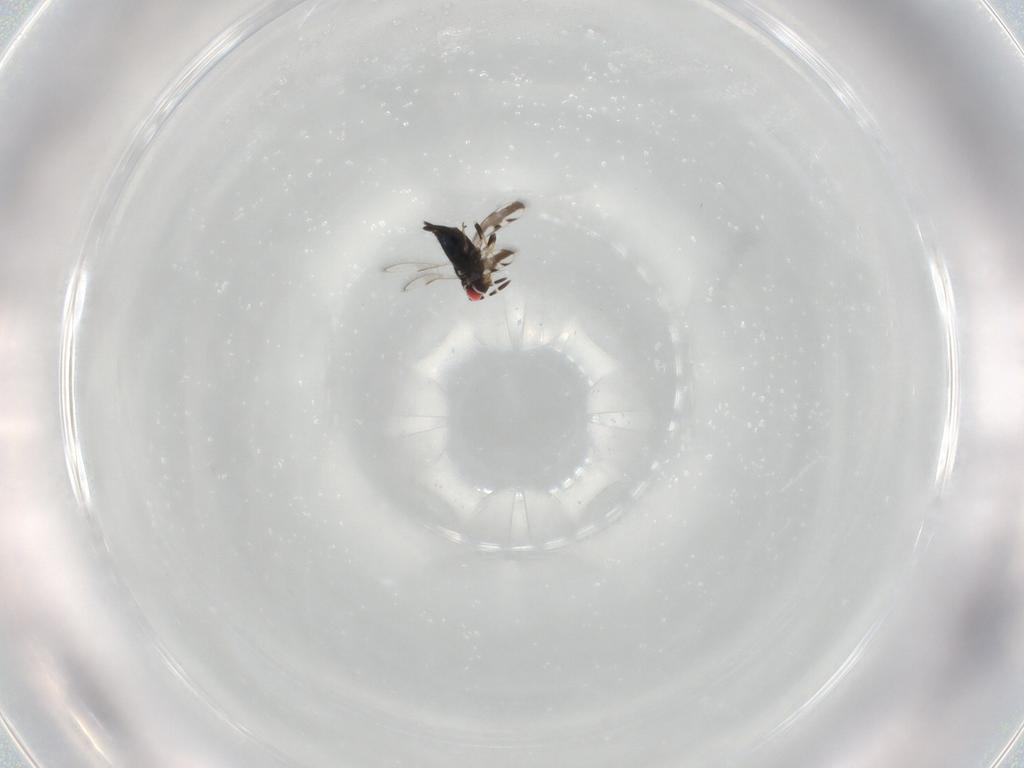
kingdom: Animalia
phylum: Arthropoda
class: Insecta
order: Hymenoptera
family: Azotidae
